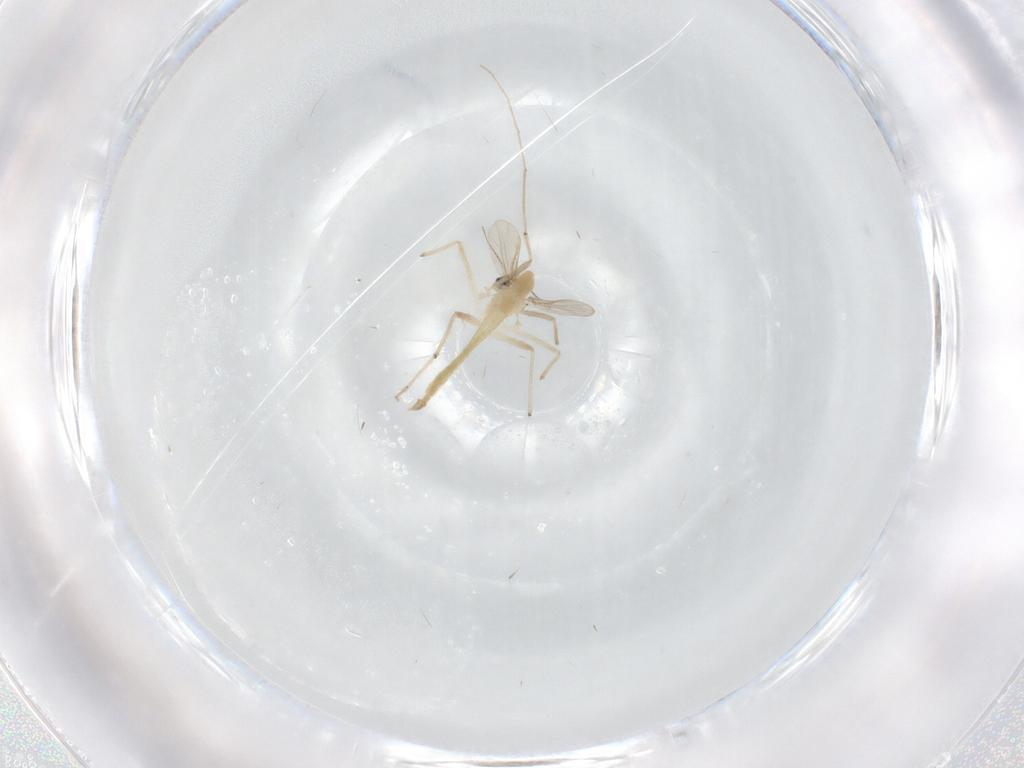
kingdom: Animalia
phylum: Arthropoda
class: Insecta
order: Diptera
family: Chironomidae
